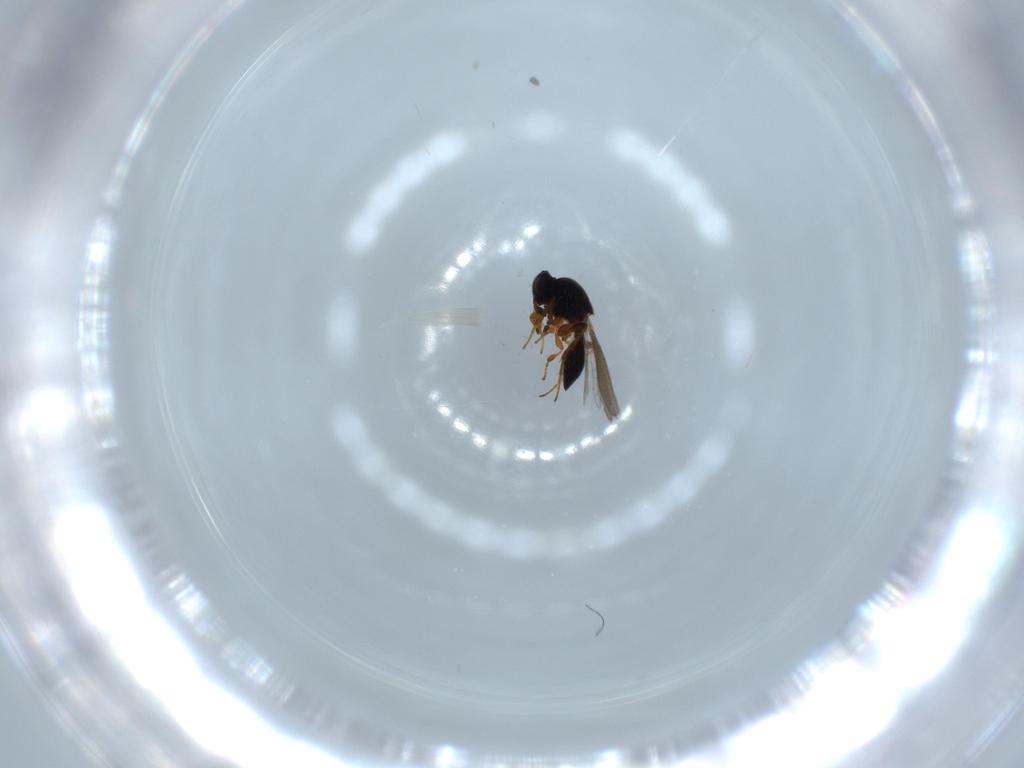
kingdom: Animalia
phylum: Arthropoda
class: Insecta
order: Hymenoptera
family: Platygastridae
